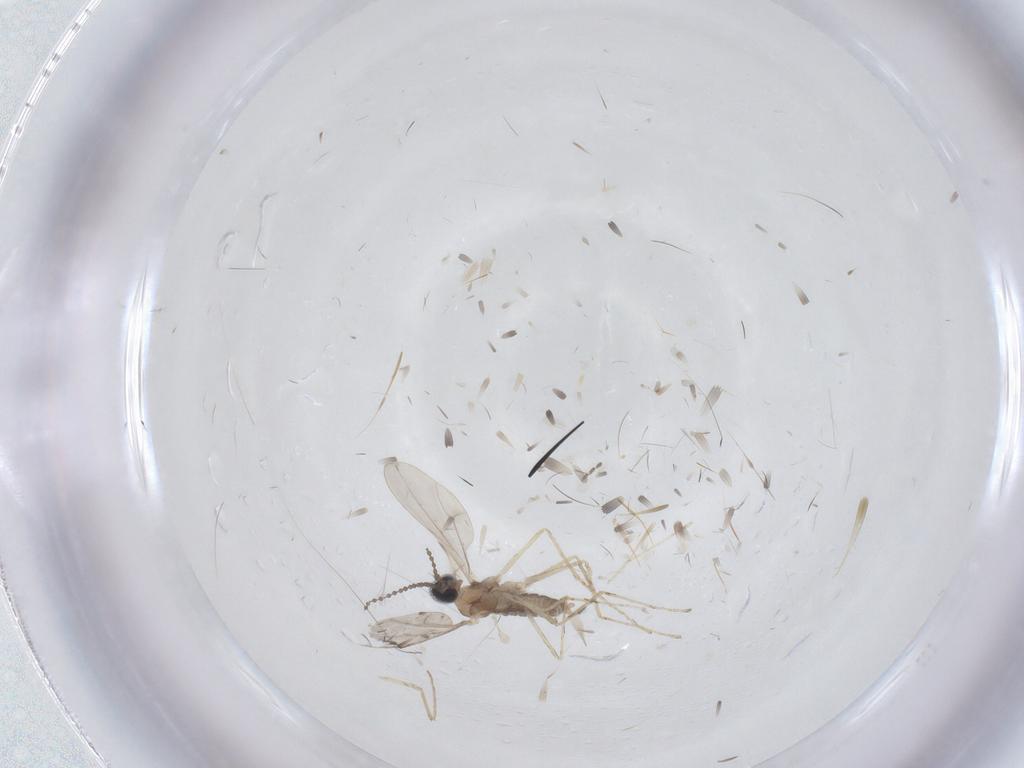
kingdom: Animalia
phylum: Arthropoda
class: Insecta
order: Diptera
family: Cecidomyiidae
